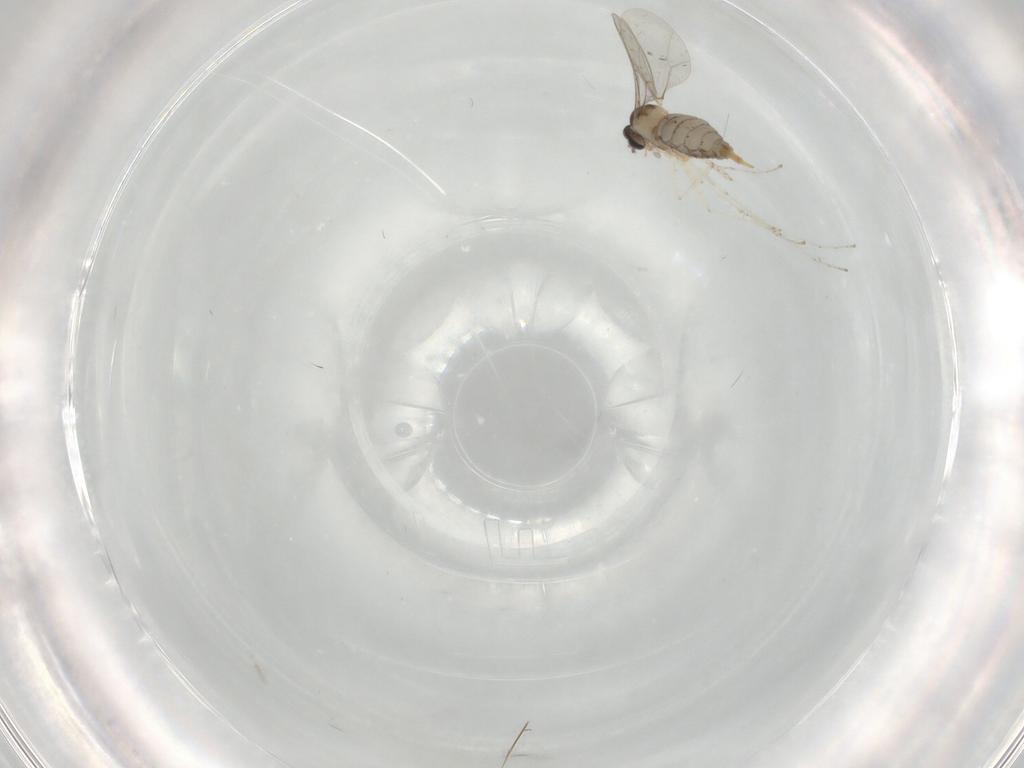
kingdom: Animalia
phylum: Arthropoda
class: Insecta
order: Diptera
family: Cecidomyiidae
